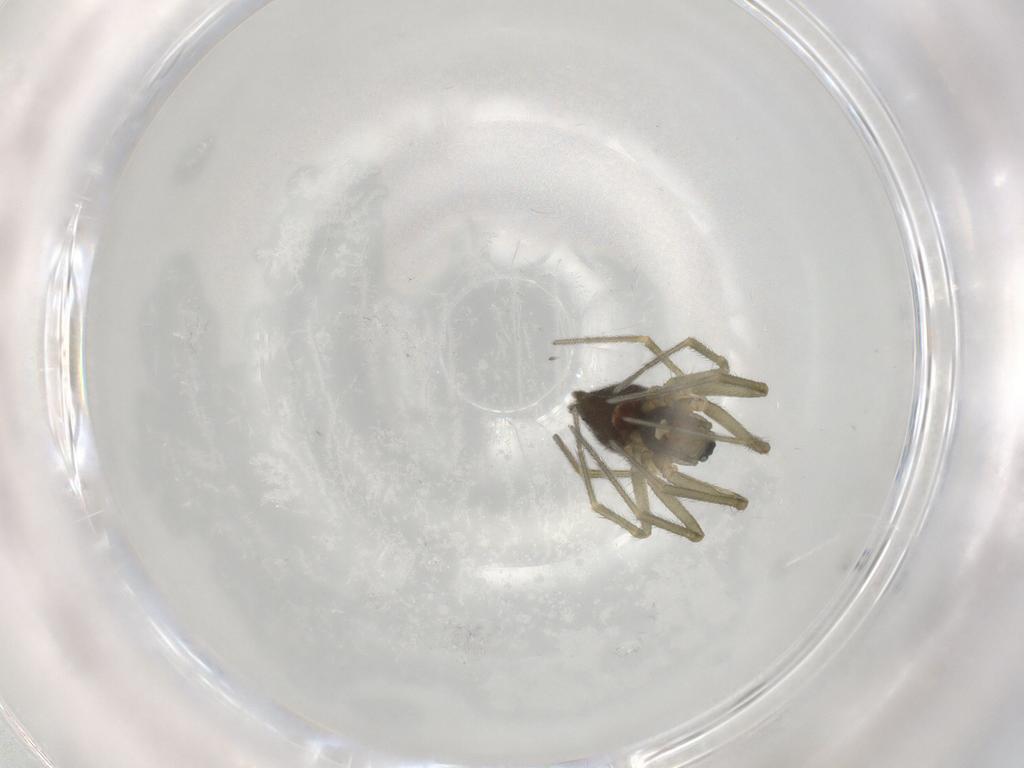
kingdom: Animalia
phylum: Arthropoda
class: Arachnida
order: Araneae
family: Linyphiidae
